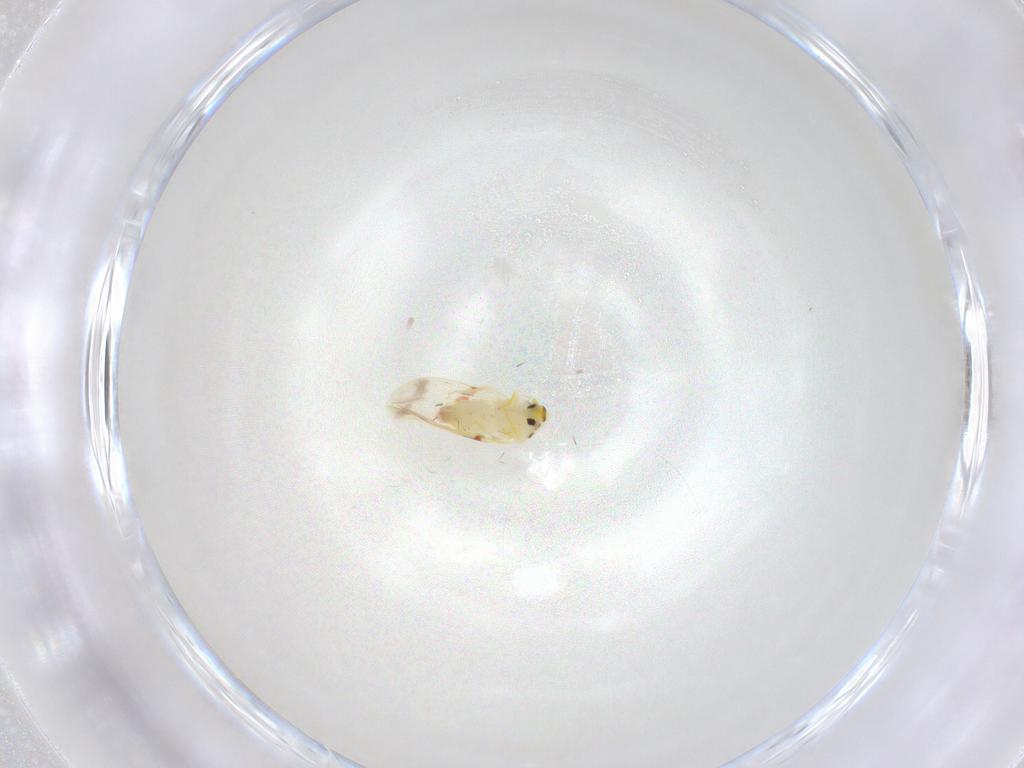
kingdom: Animalia
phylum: Arthropoda
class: Insecta
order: Hemiptera
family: Aleyrodidae
